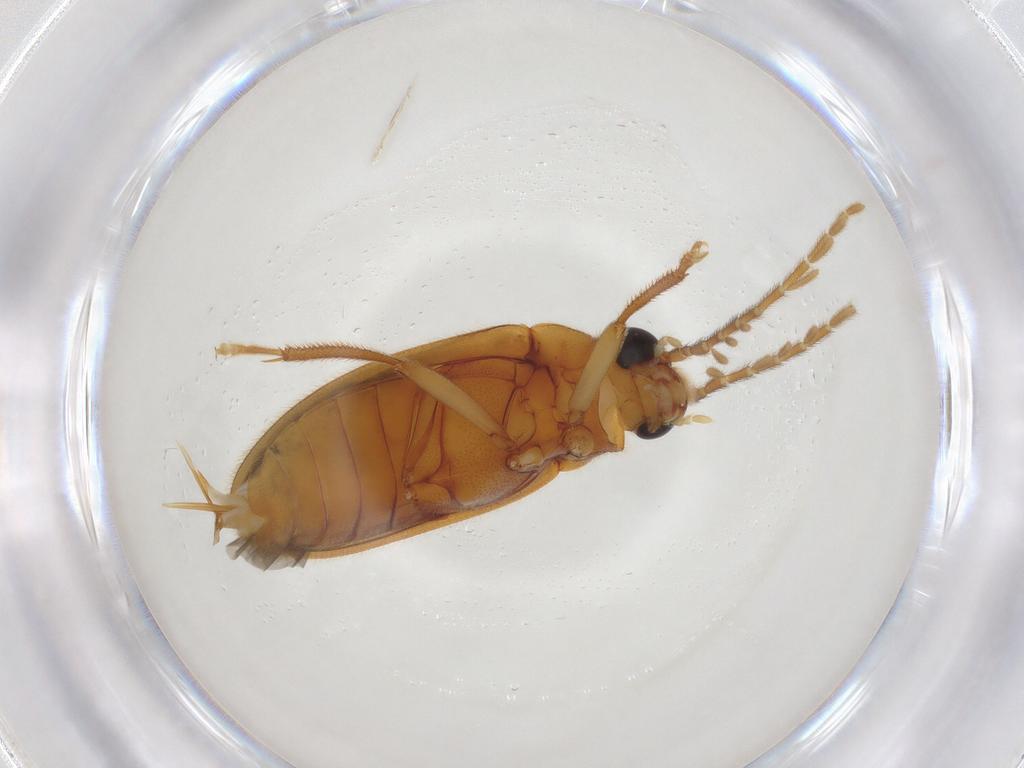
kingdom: Animalia
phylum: Arthropoda
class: Insecta
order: Coleoptera
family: Ptilodactylidae
